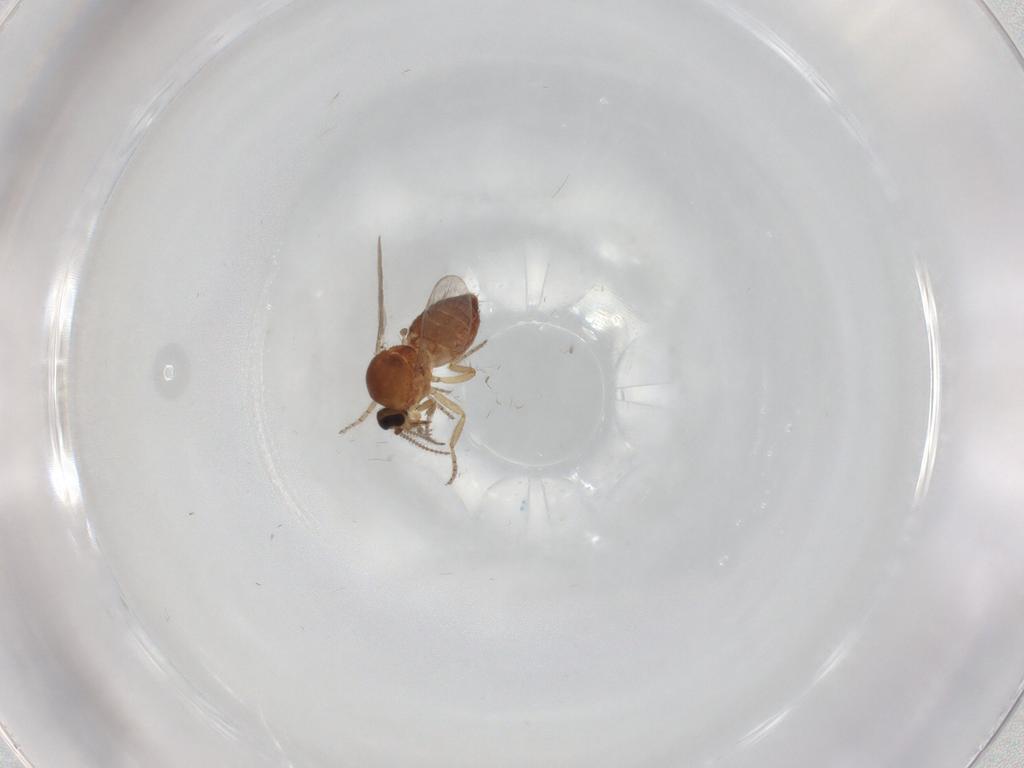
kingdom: Animalia
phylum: Arthropoda
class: Insecta
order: Diptera
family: Ceratopogonidae
